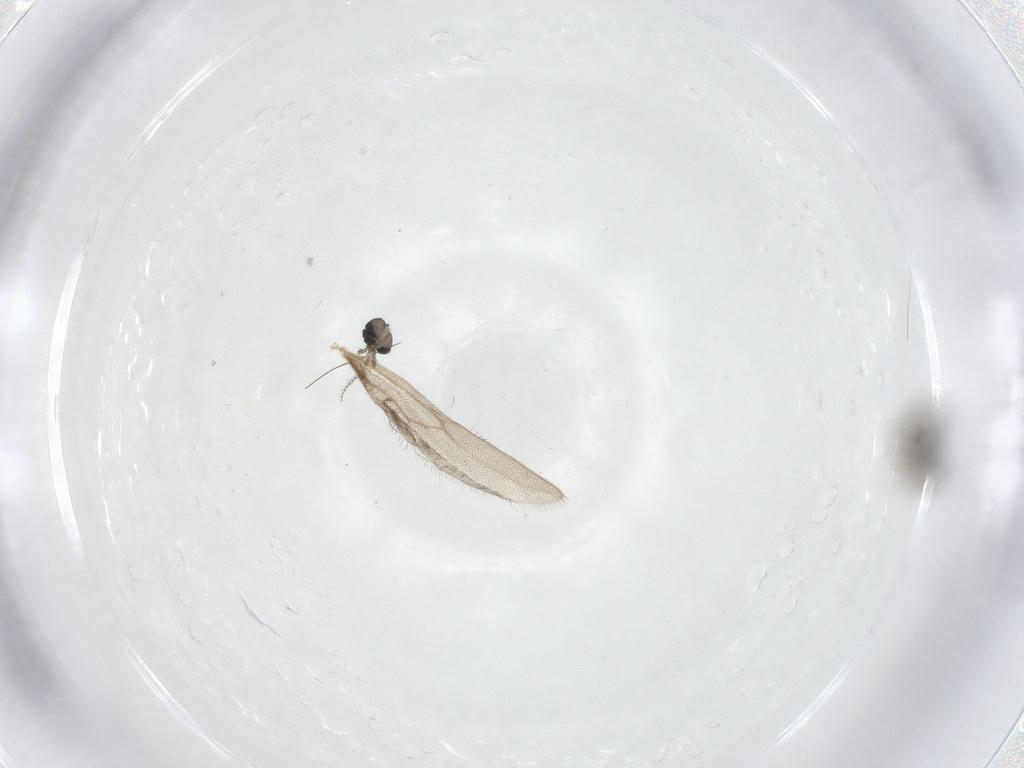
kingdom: Animalia
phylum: Arthropoda
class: Insecta
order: Diptera
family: Psychodidae
